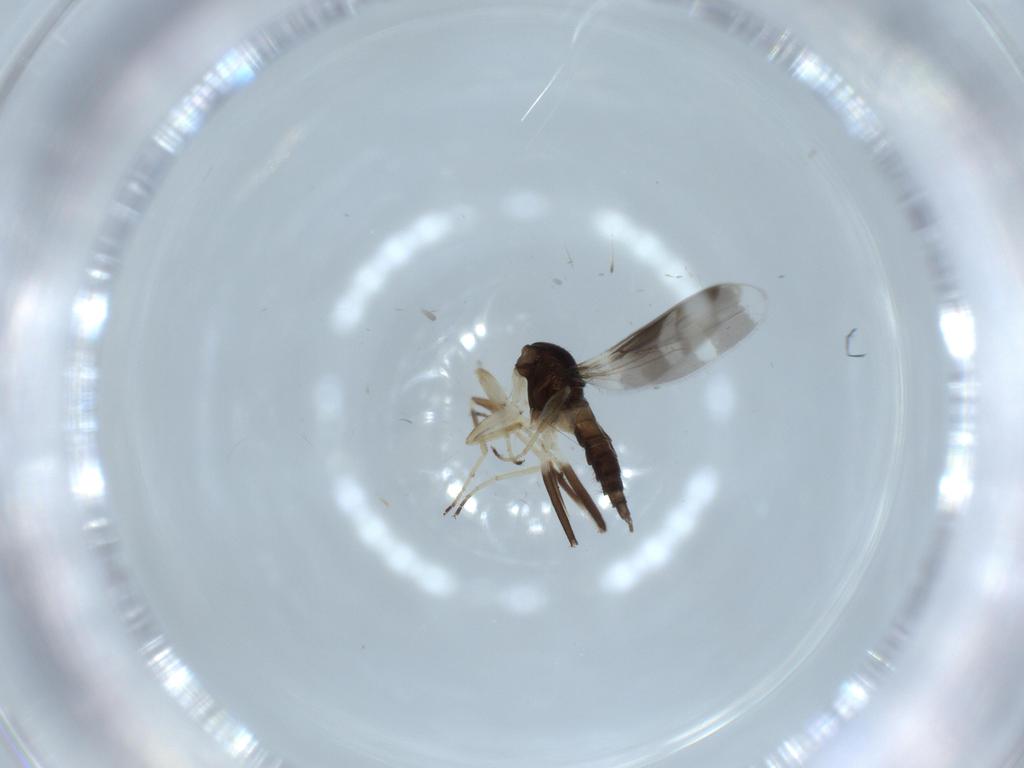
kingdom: Animalia
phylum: Arthropoda
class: Insecta
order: Diptera
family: Hybotidae
